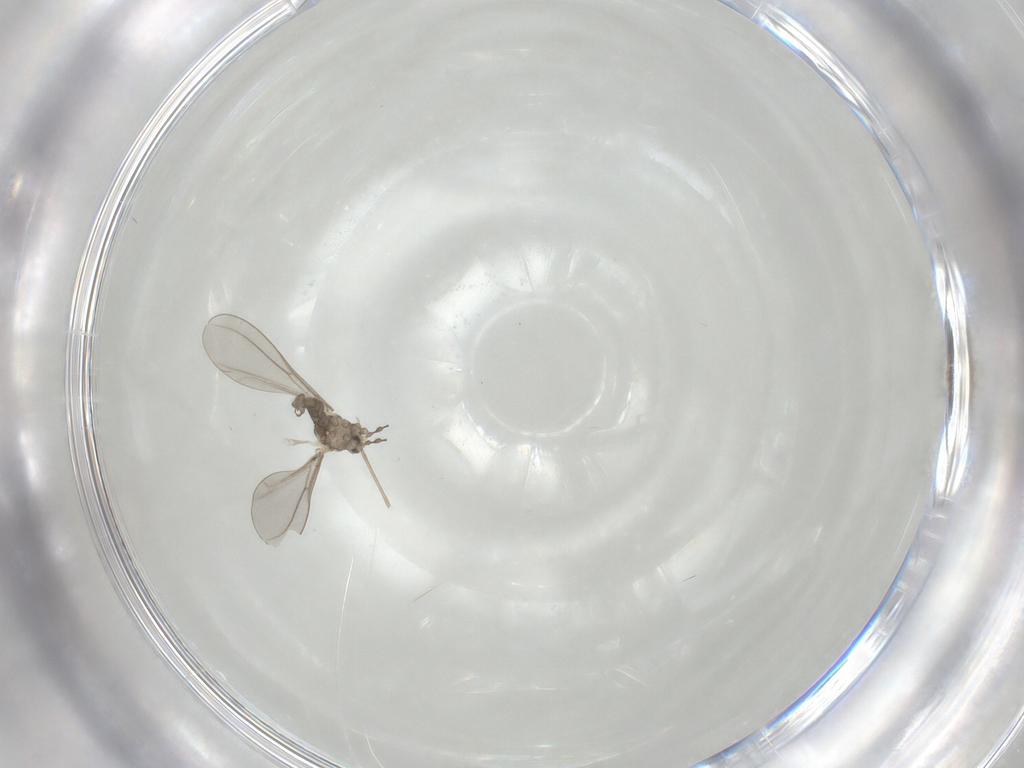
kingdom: Animalia
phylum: Arthropoda
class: Insecta
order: Diptera
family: Cecidomyiidae
